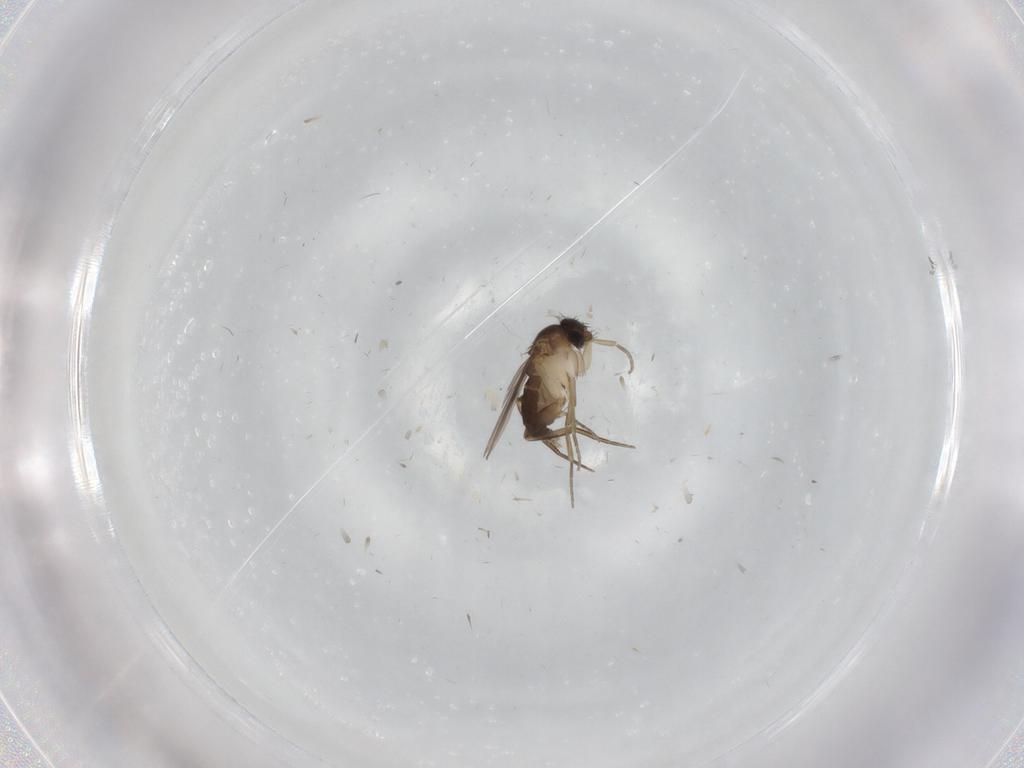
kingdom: Animalia
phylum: Arthropoda
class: Insecta
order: Diptera
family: Phoridae
